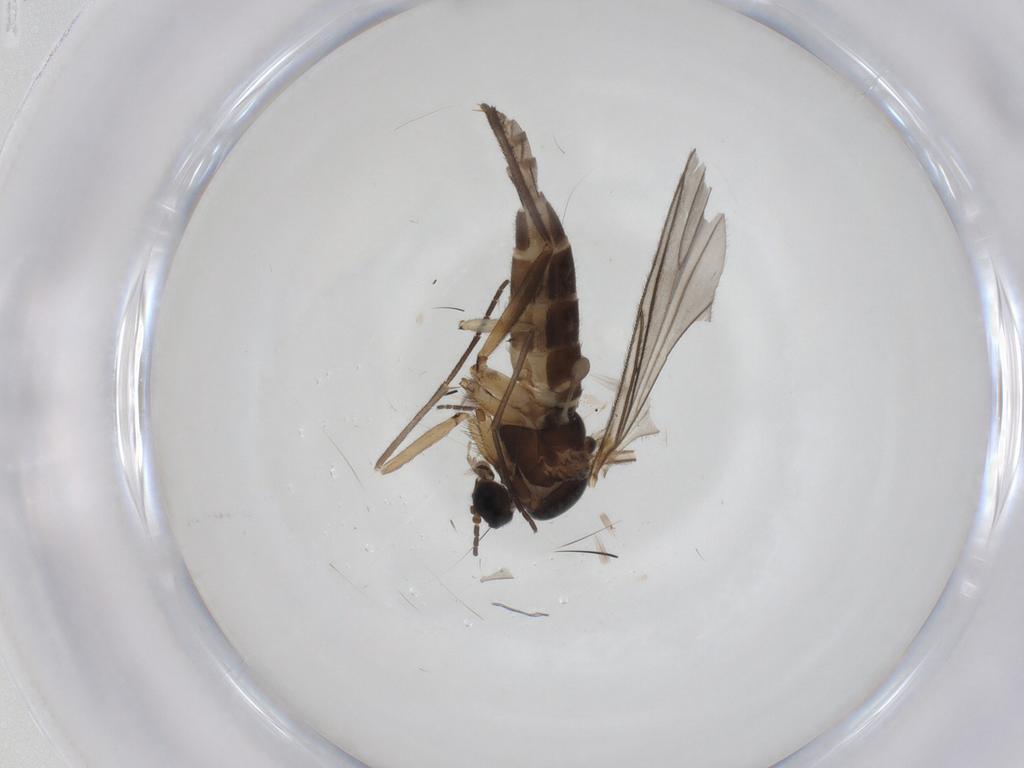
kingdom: Animalia
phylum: Arthropoda
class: Insecta
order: Diptera
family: Sciaridae
